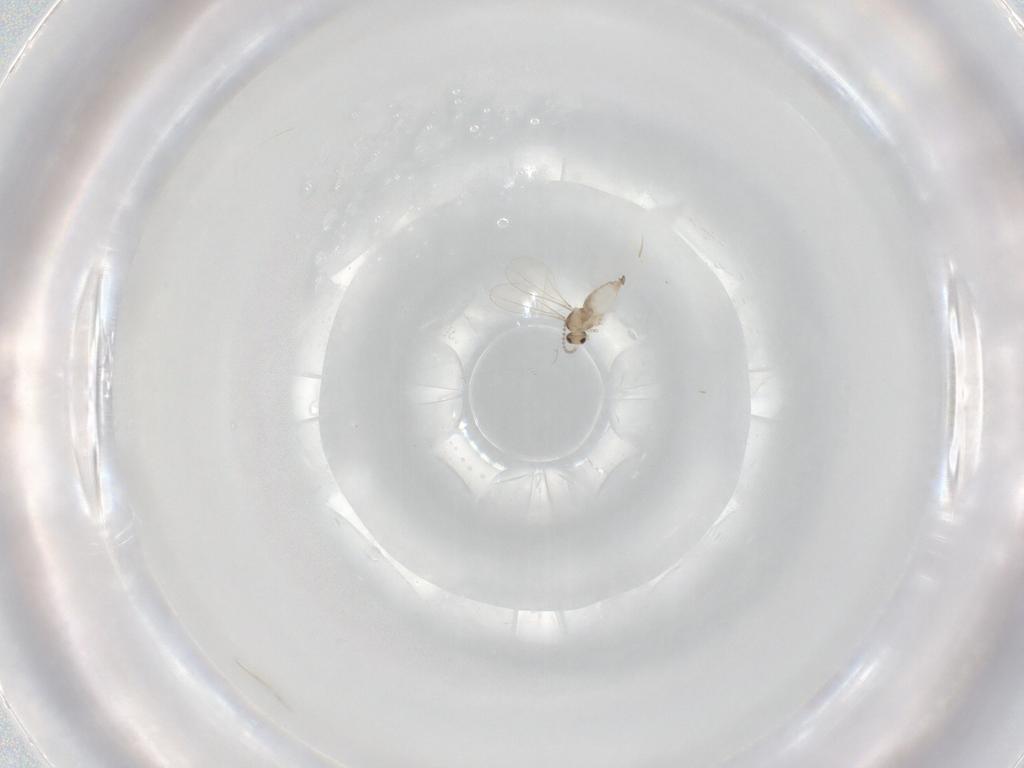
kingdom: Animalia
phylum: Arthropoda
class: Insecta
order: Diptera
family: Cecidomyiidae
